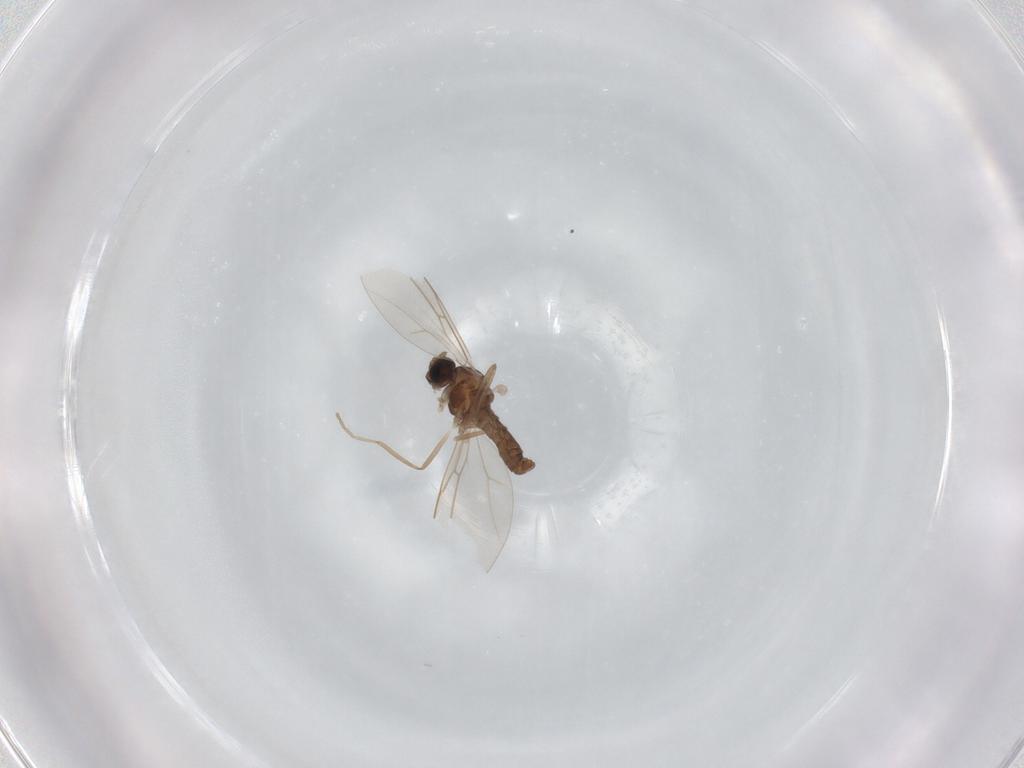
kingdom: Animalia
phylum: Arthropoda
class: Insecta
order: Diptera
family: Cecidomyiidae
